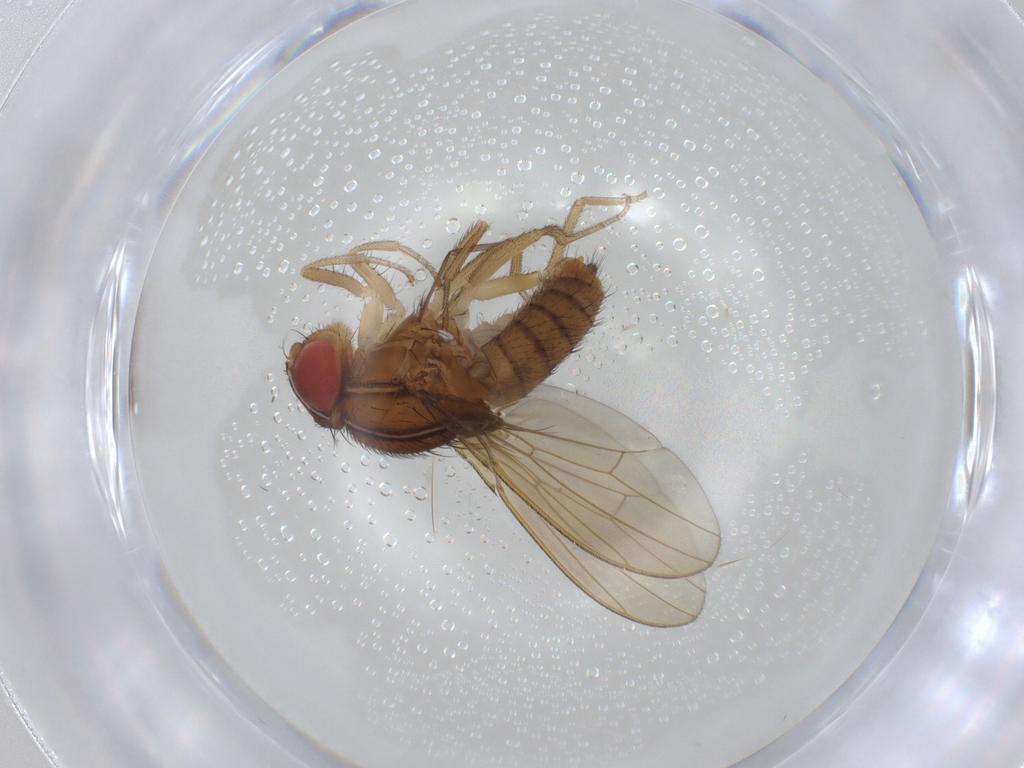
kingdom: Animalia
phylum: Arthropoda
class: Insecta
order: Diptera
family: Drosophilidae
